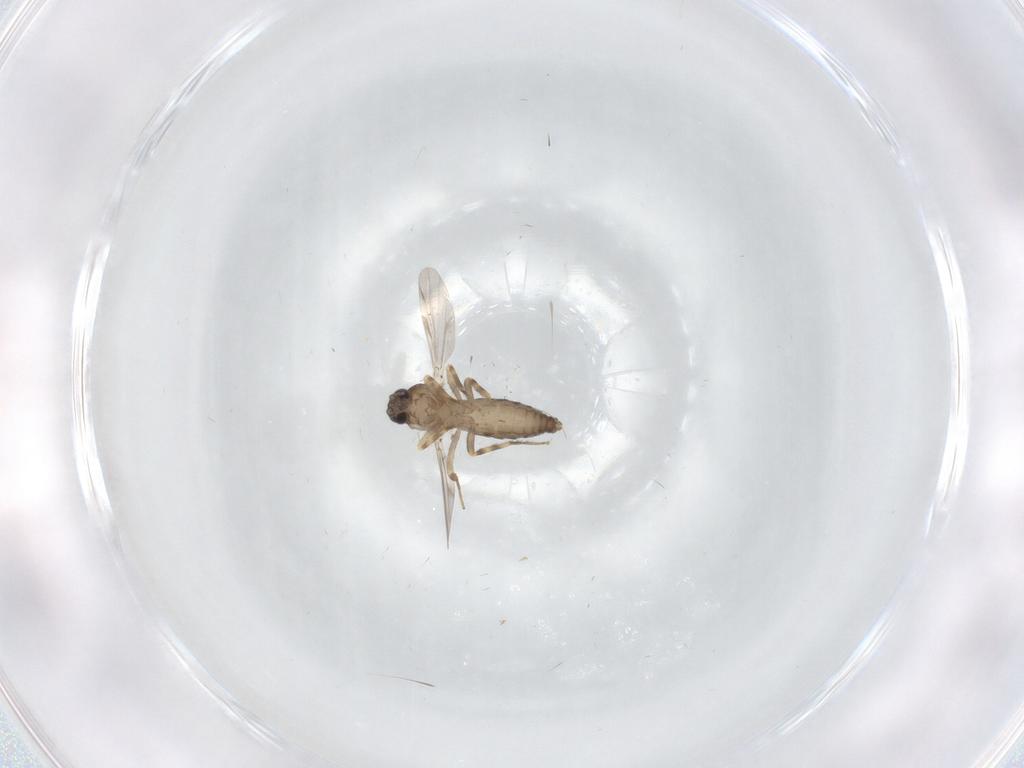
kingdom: Animalia
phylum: Arthropoda
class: Insecta
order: Diptera
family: Ceratopogonidae
